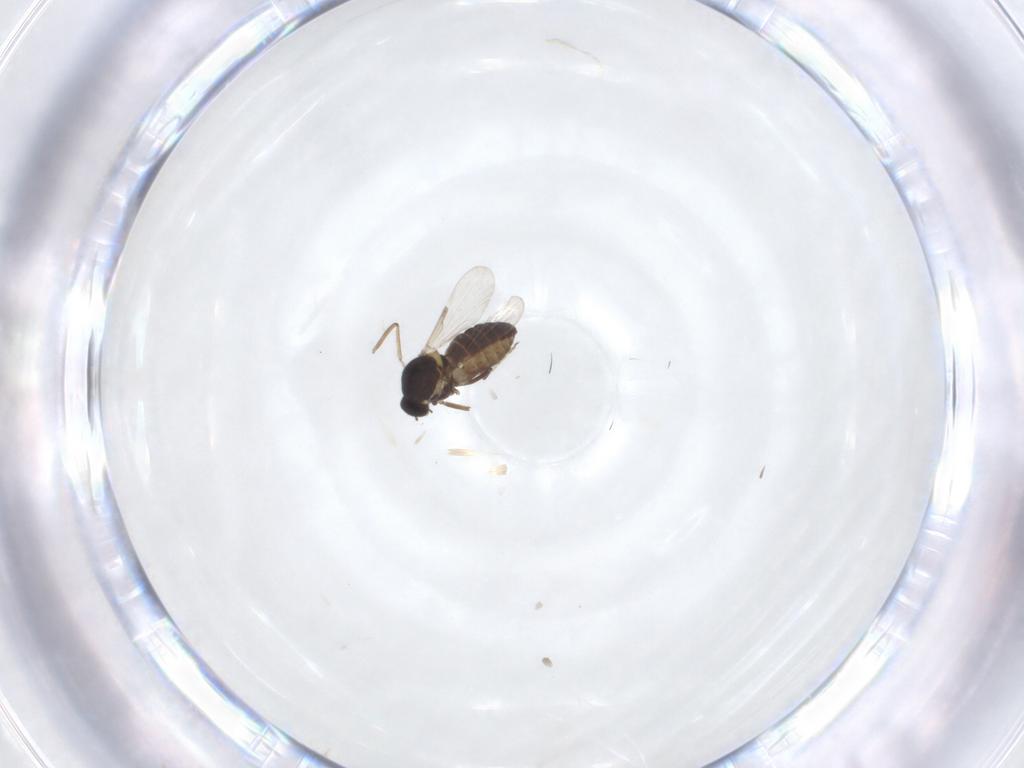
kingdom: Animalia
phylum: Arthropoda
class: Insecta
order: Diptera
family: Ceratopogonidae
